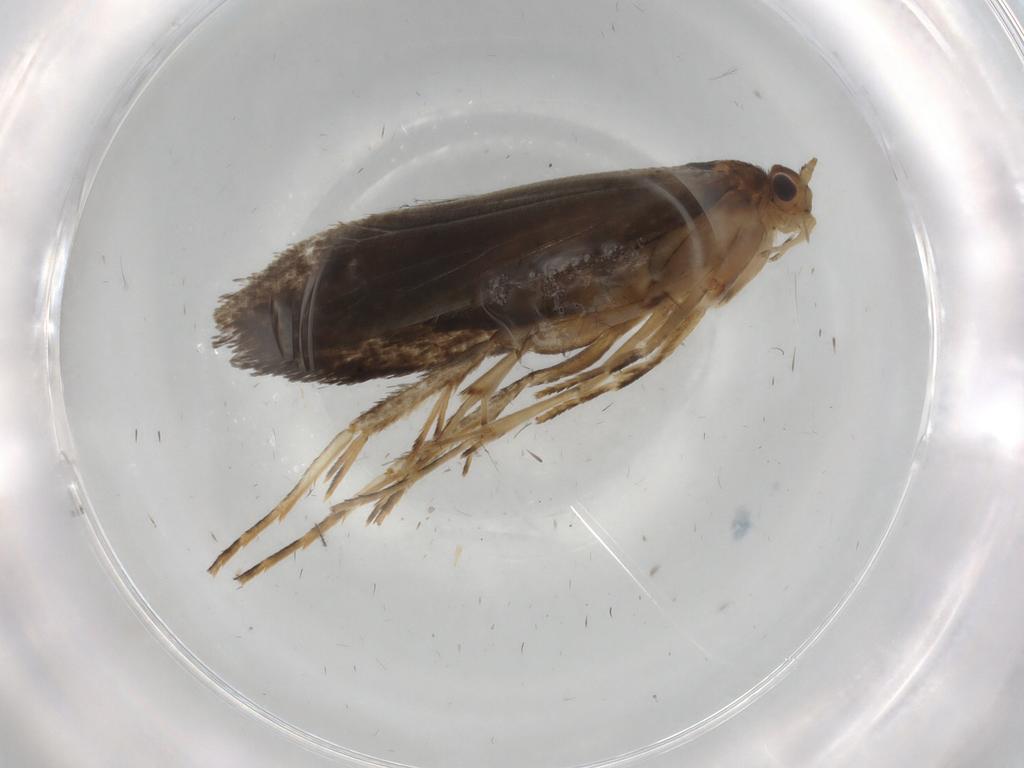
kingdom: Animalia
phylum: Arthropoda
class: Insecta
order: Lepidoptera
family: Tineidae
